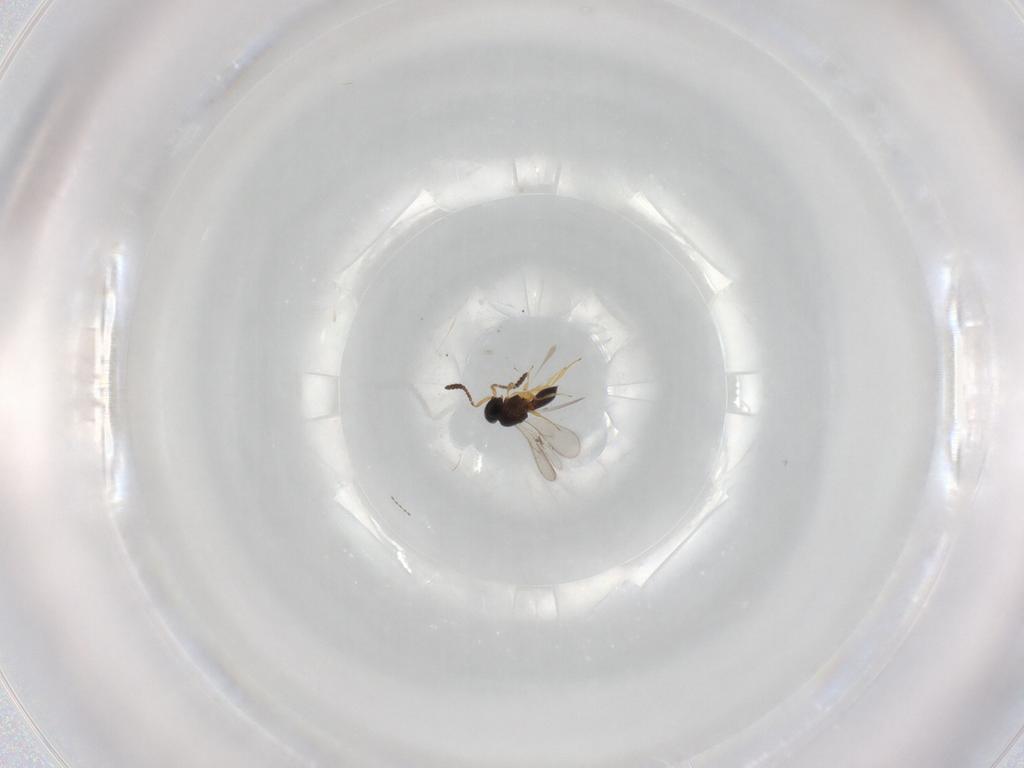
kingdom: Animalia
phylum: Arthropoda
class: Insecta
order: Hymenoptera
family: Scelionidae
